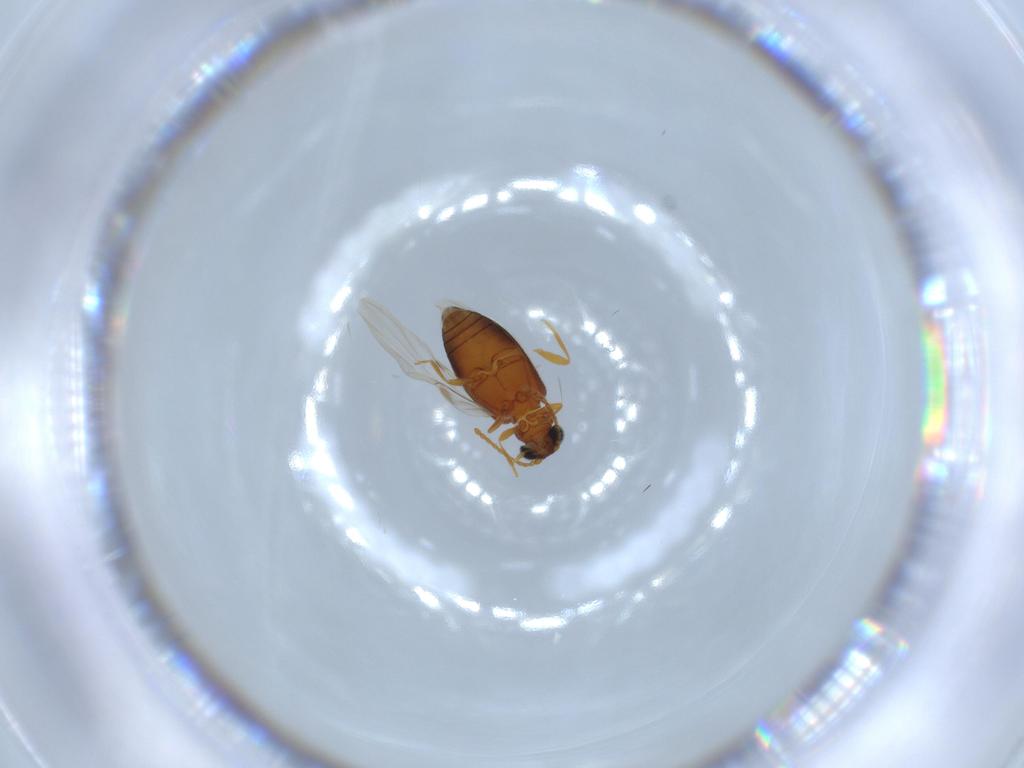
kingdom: Animalia
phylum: Arthropoda
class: Insecta
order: Coleoptera
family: Aderidae
